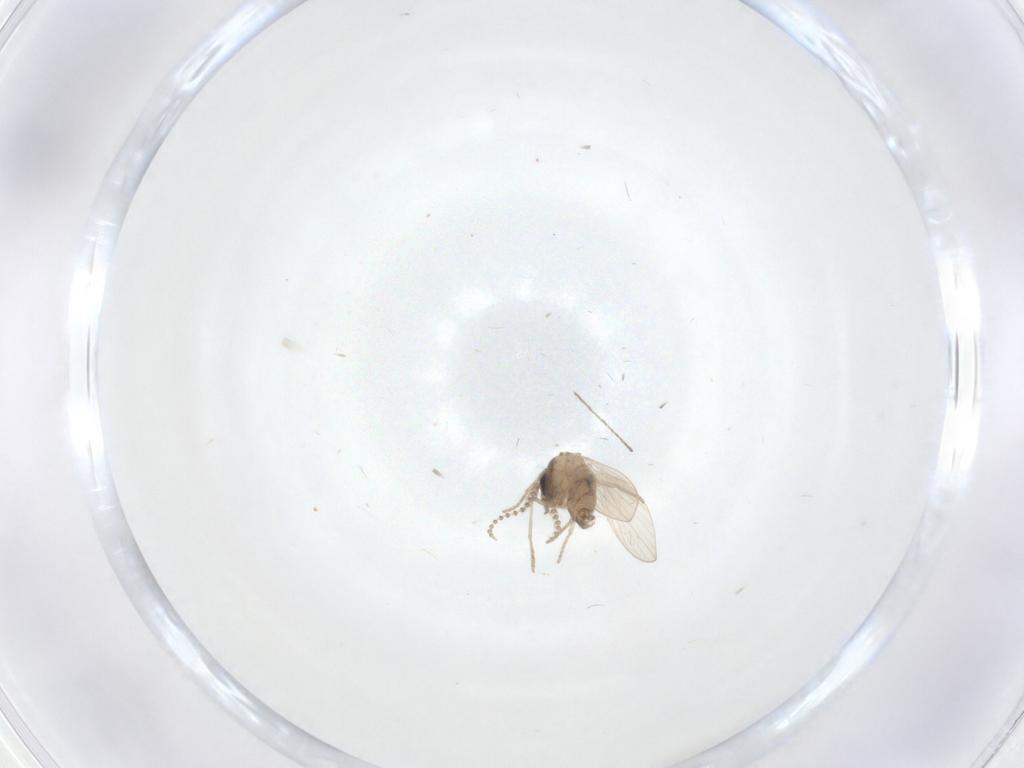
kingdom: Animalia
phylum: Arthropoda
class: Insecta
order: Diptera
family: Psychodidae
